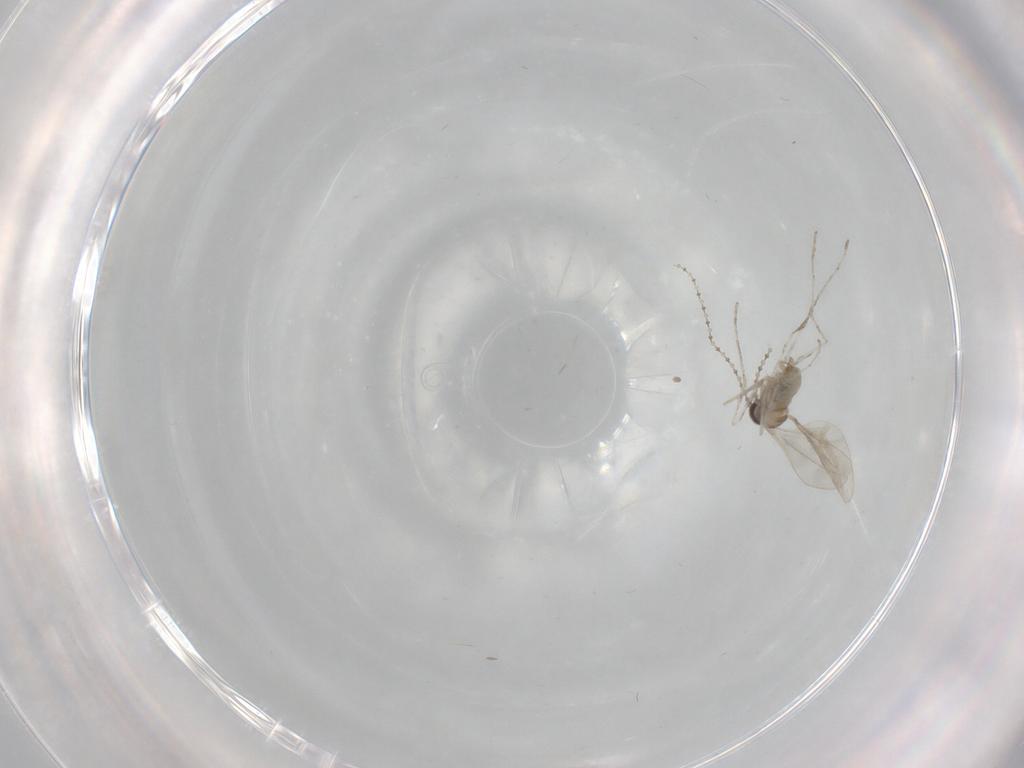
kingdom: Animalia
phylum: Arthropoda
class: Insecta
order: Diptera
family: Cecidomyiidae
